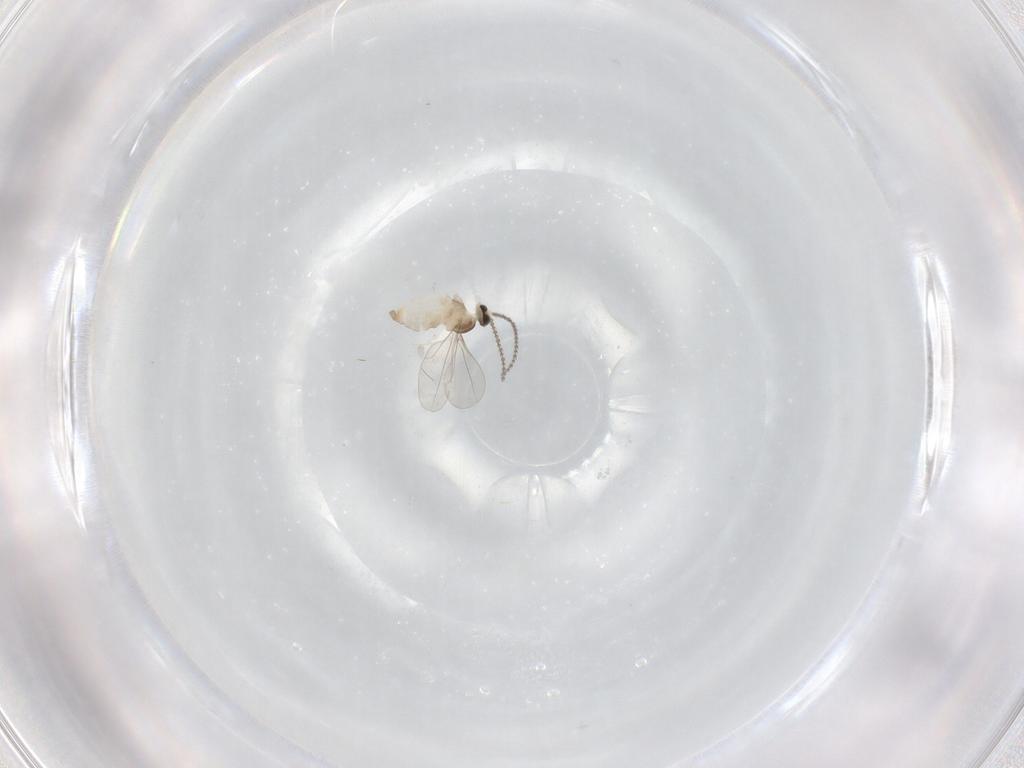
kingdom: Animalia
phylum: Arthropoda
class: Insecta
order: Diptera
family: Cecidomyiidae
